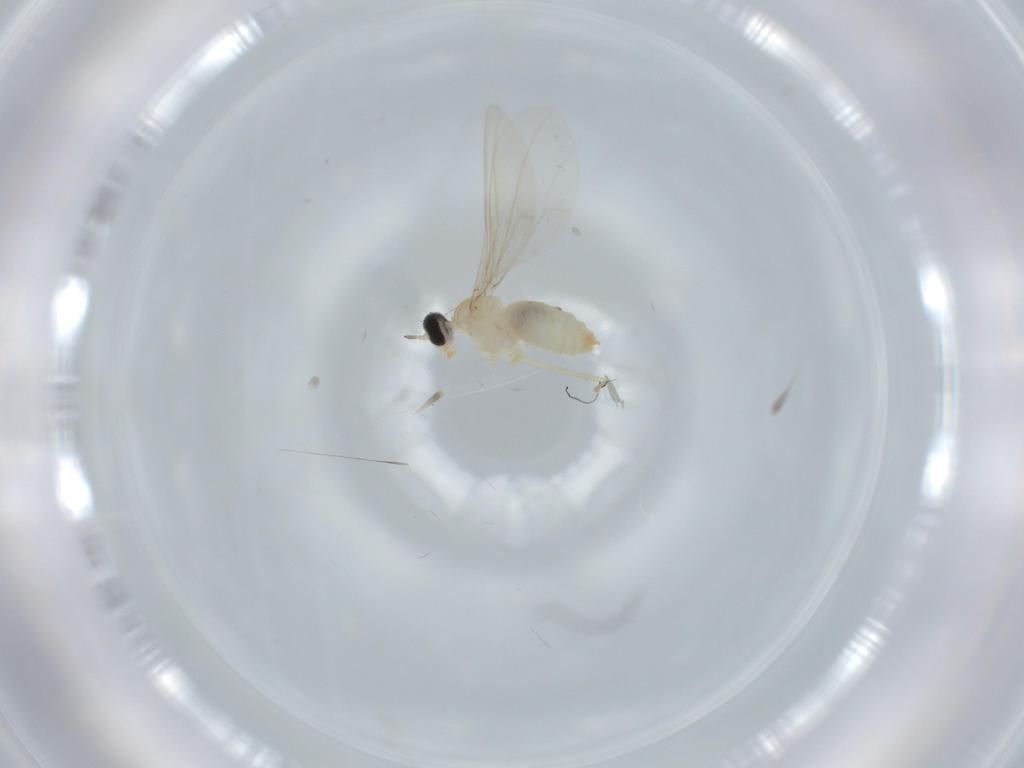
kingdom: Animalia
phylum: Arthropoda
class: Insecta
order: Diptera
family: Cecidomyiidae
